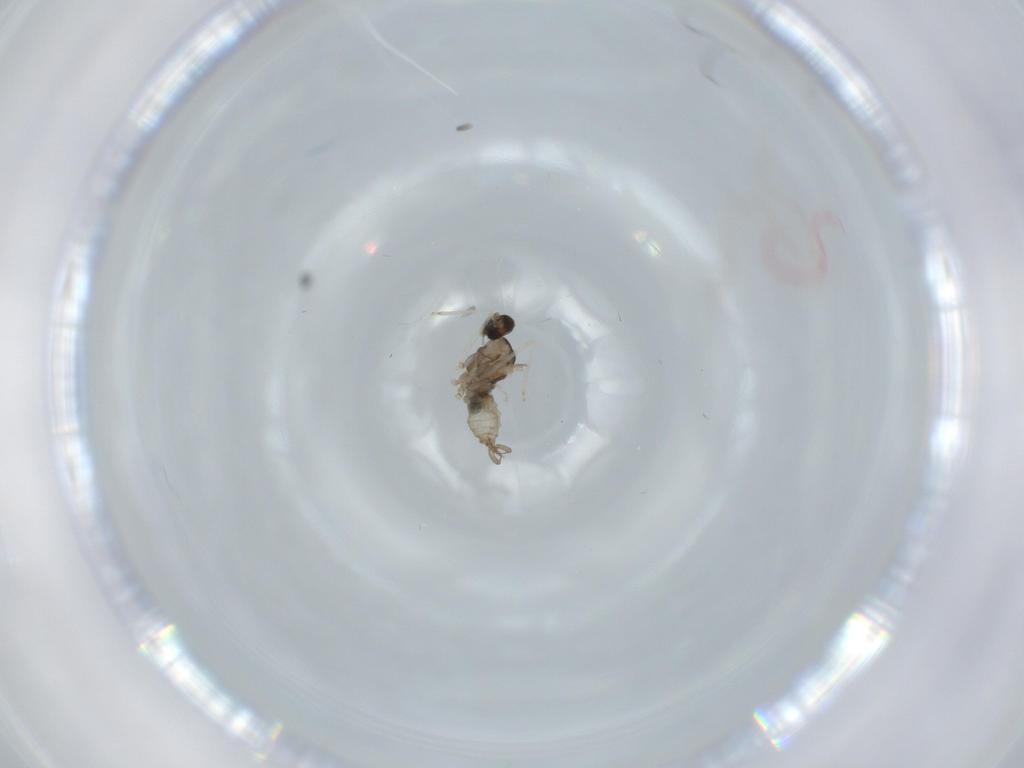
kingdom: Animalia
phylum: Arthropoda
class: Insecta
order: Diptera
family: Cecidomyiidae
